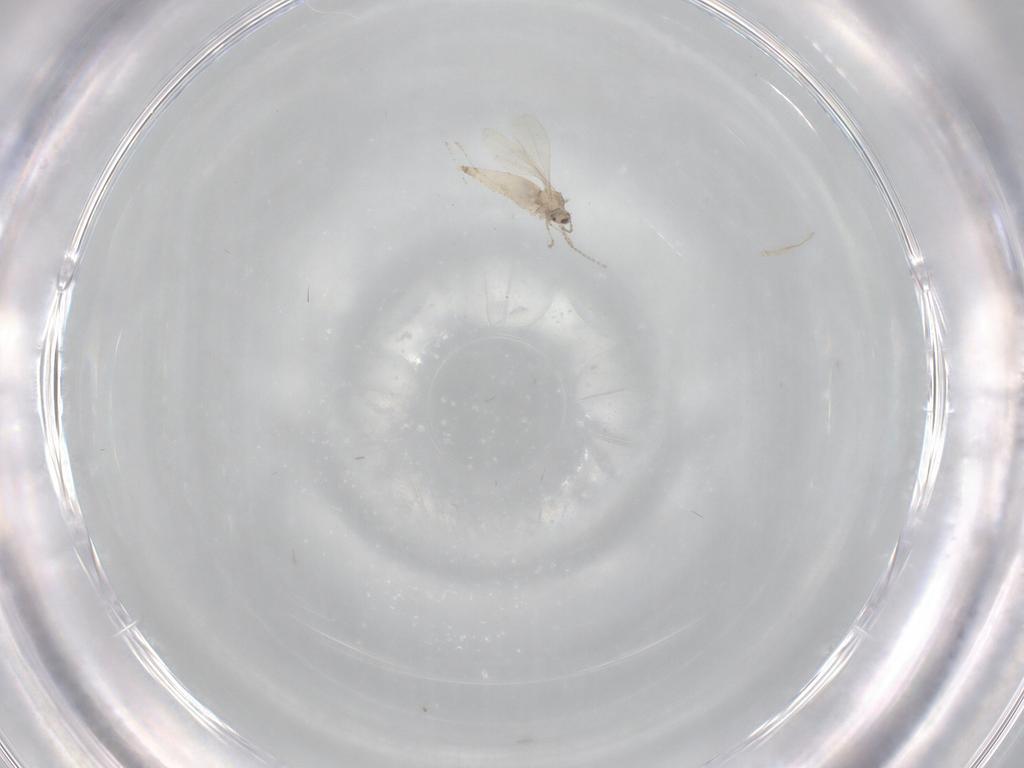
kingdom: Animalia
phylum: Arthropoda
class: Insecta
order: Diptera
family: Cecidomyiidae
